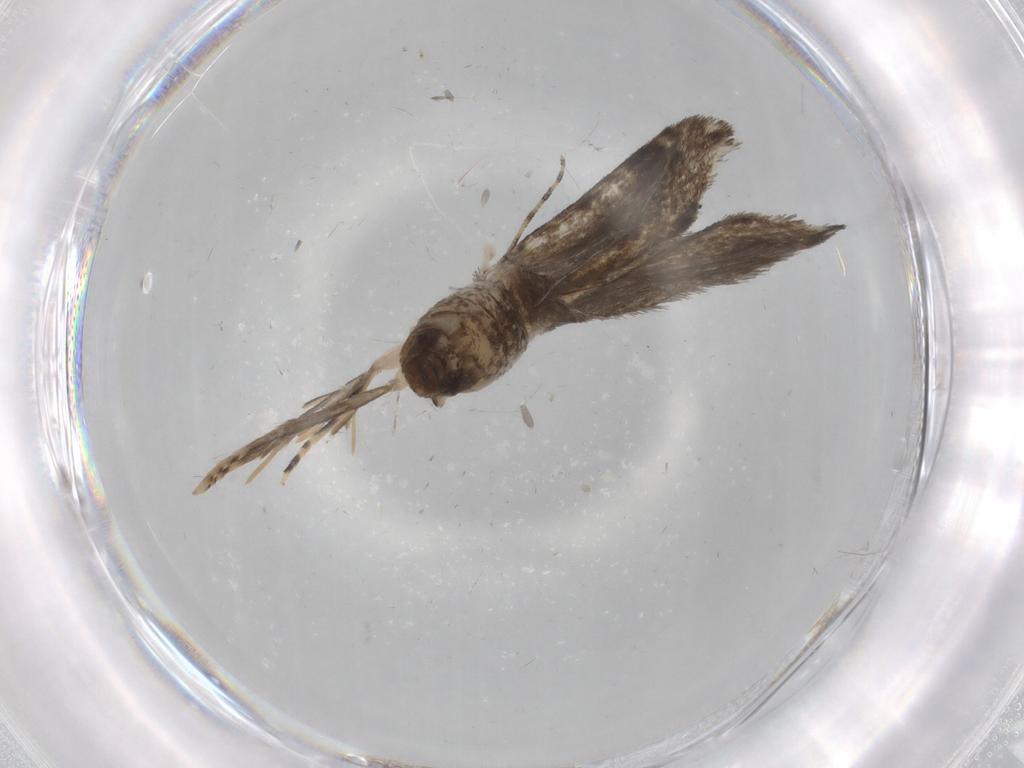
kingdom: Animalia
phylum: Arthropoda
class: Insecta
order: Lepidoptera
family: Tineidae
